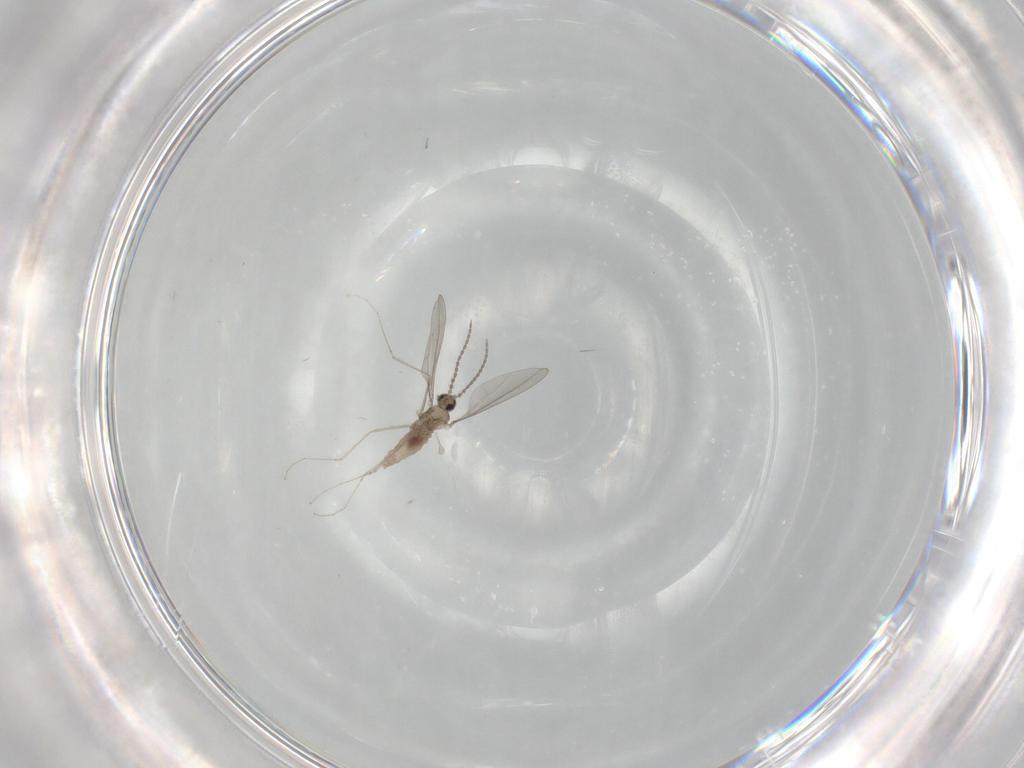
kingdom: Animalia
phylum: Arthropoda
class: Insecta
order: Diptera
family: Cecidomyiidae
